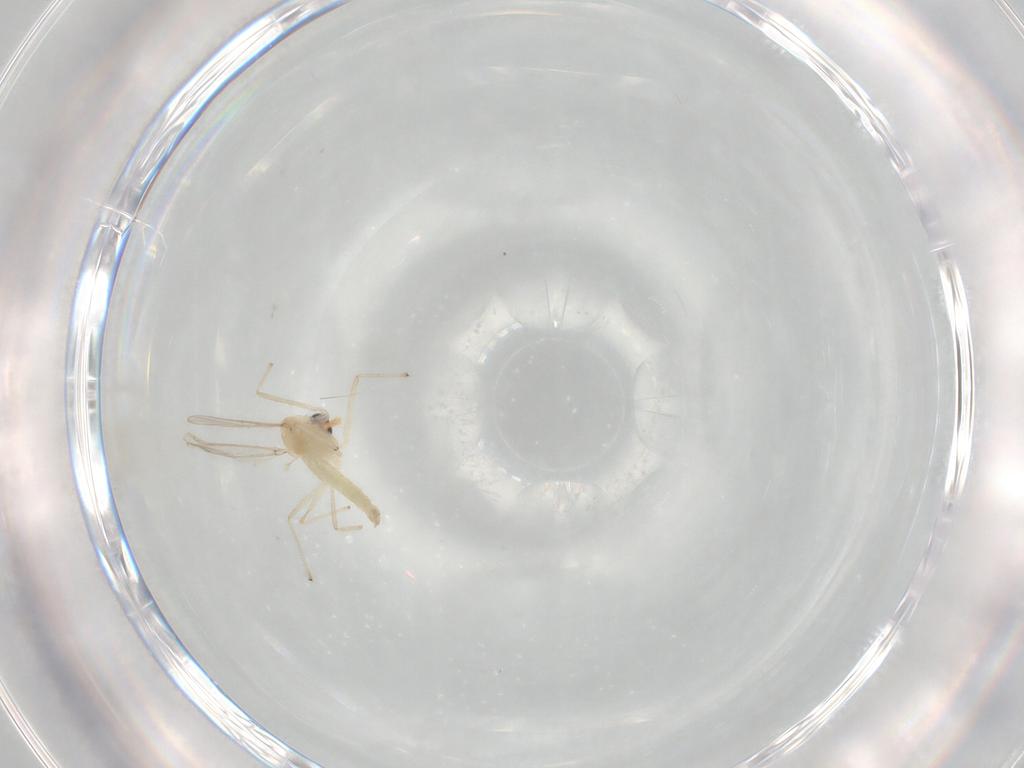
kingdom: Animalia
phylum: Arthropoda
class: Insecta
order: Diptera
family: Chironomidae
